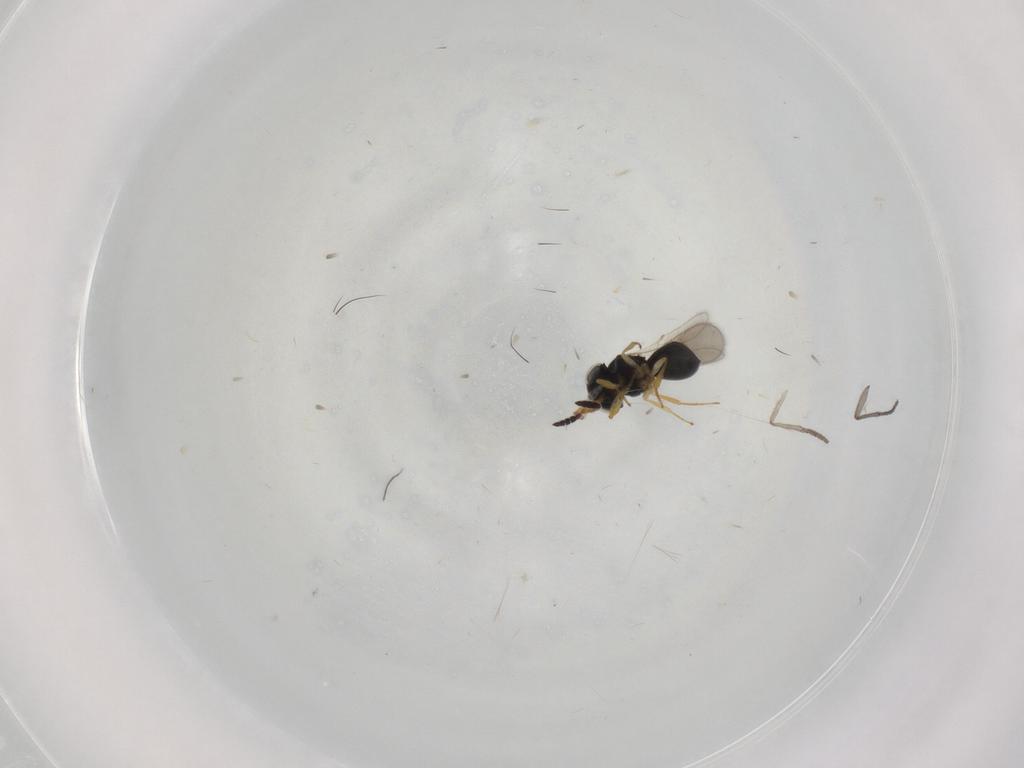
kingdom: Animalia
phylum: Arthropoda
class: Insecta
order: Hymenoptera
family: Scelionidae
